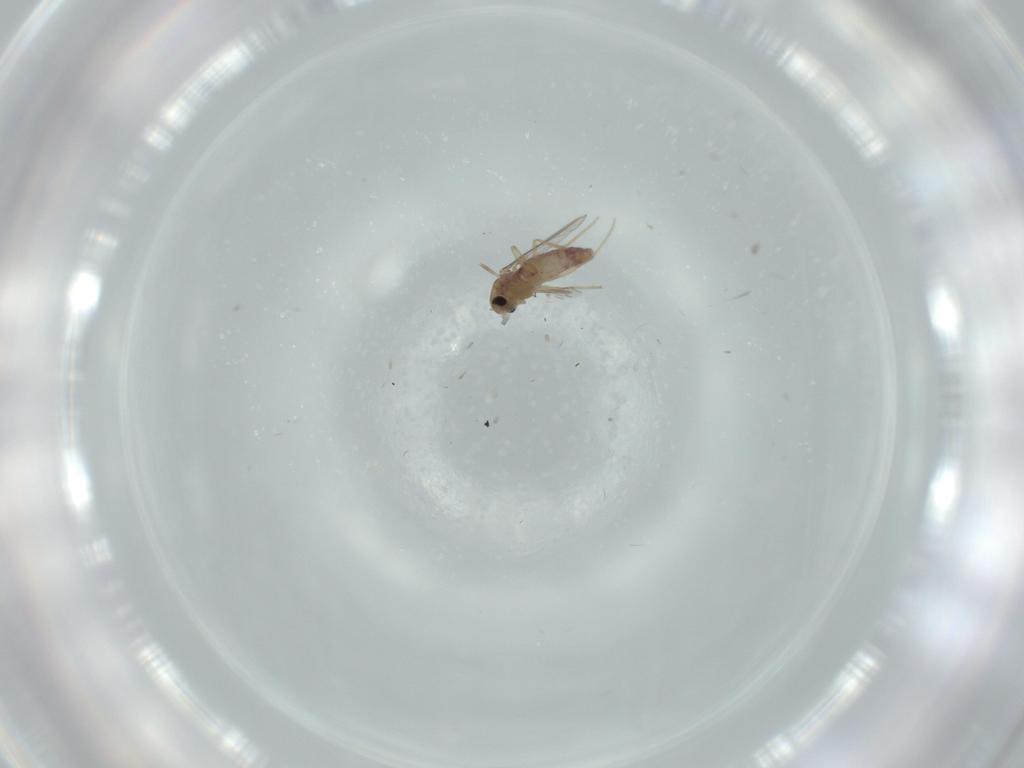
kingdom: Animalia
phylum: Arthropoda
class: Insecta
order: Diptera
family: Chironomidae
